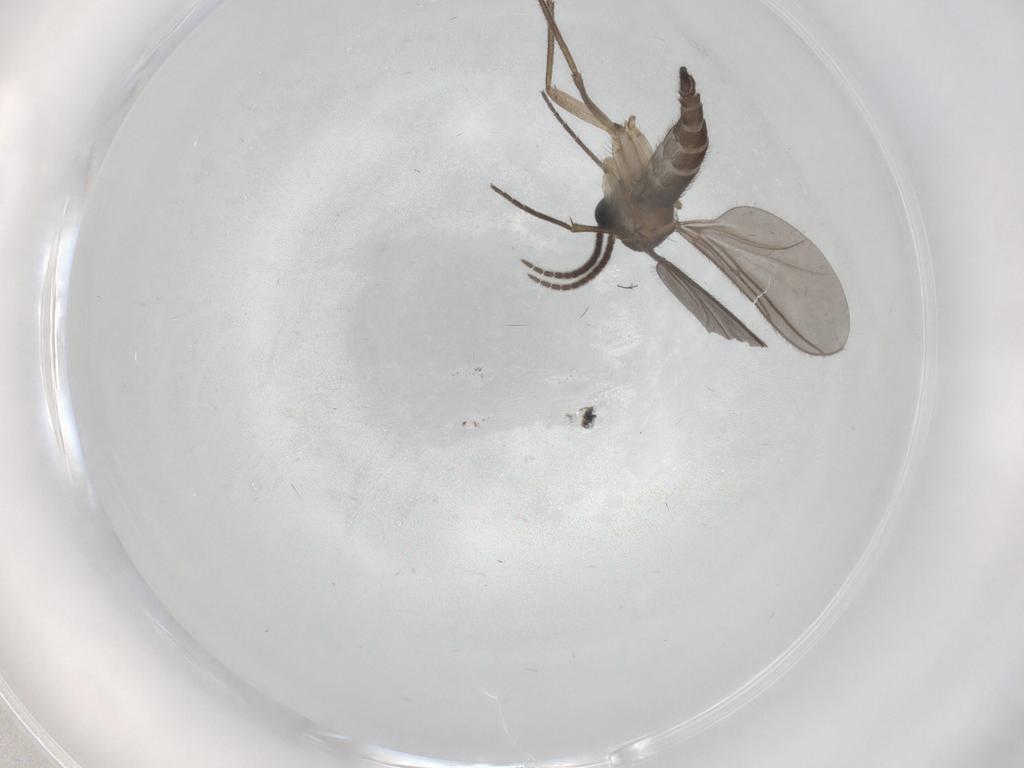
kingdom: Animalia
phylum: Arthropoda
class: Insecta
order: Diptera
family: Sciaridae
